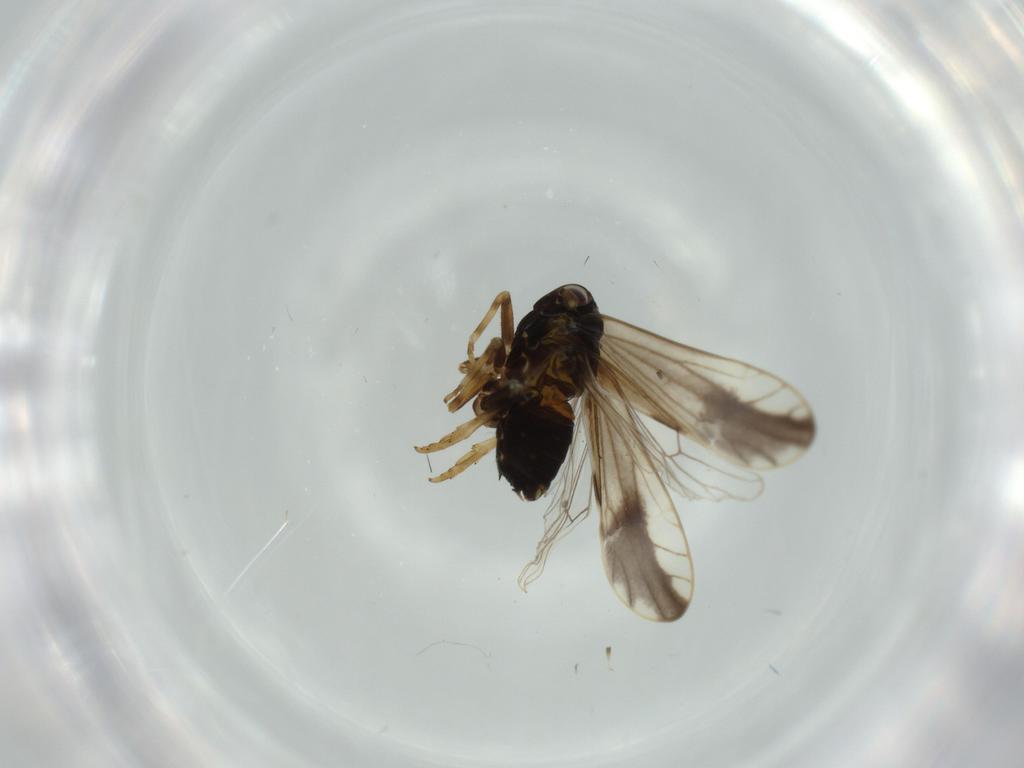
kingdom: Animalia
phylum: Arthropoda
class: Insecta
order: Hemiptera
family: Delphacidae
